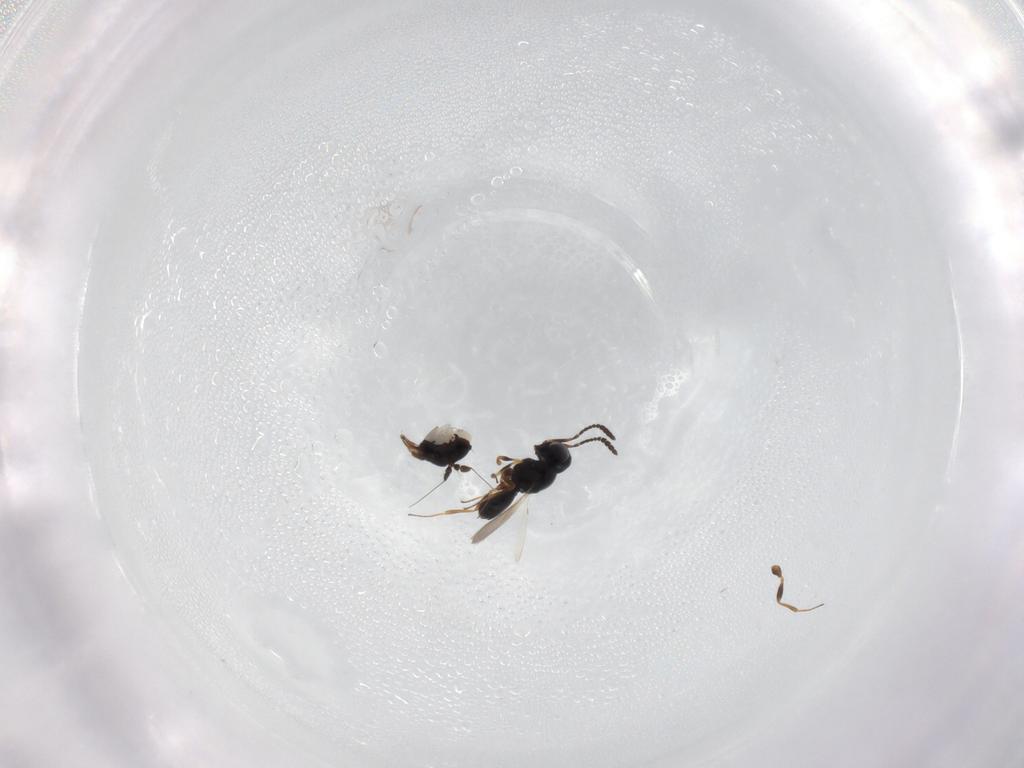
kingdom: Animalia
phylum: Arthropoda
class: Insecta
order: Hymenoptera
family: Scelionidae
